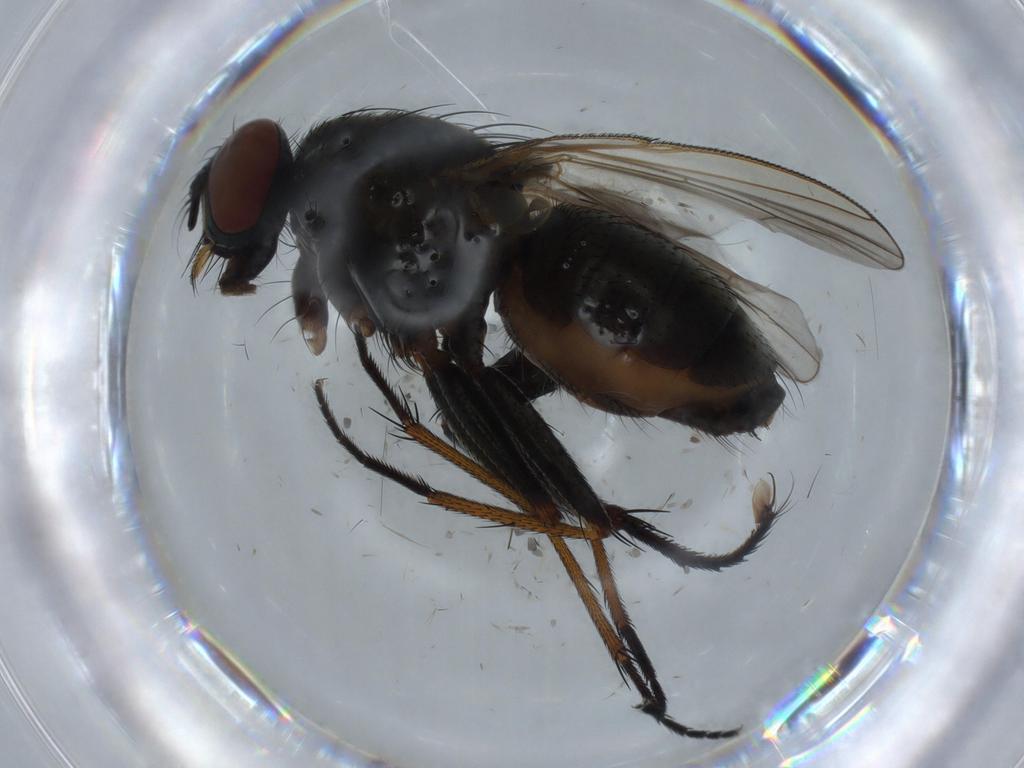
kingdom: Animalia
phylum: Arthropoda
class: Insecta
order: Diptera
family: Muscidae
